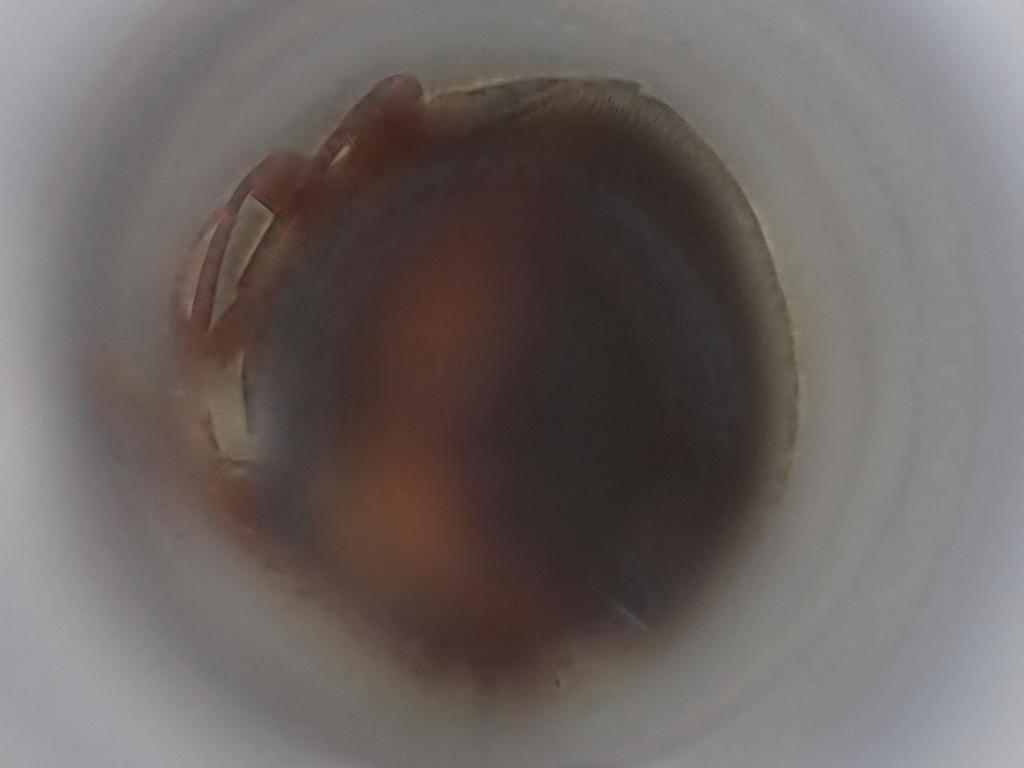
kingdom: Animalia
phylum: Arthropoda
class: Insecta
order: Coleoptera
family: Elateridae
